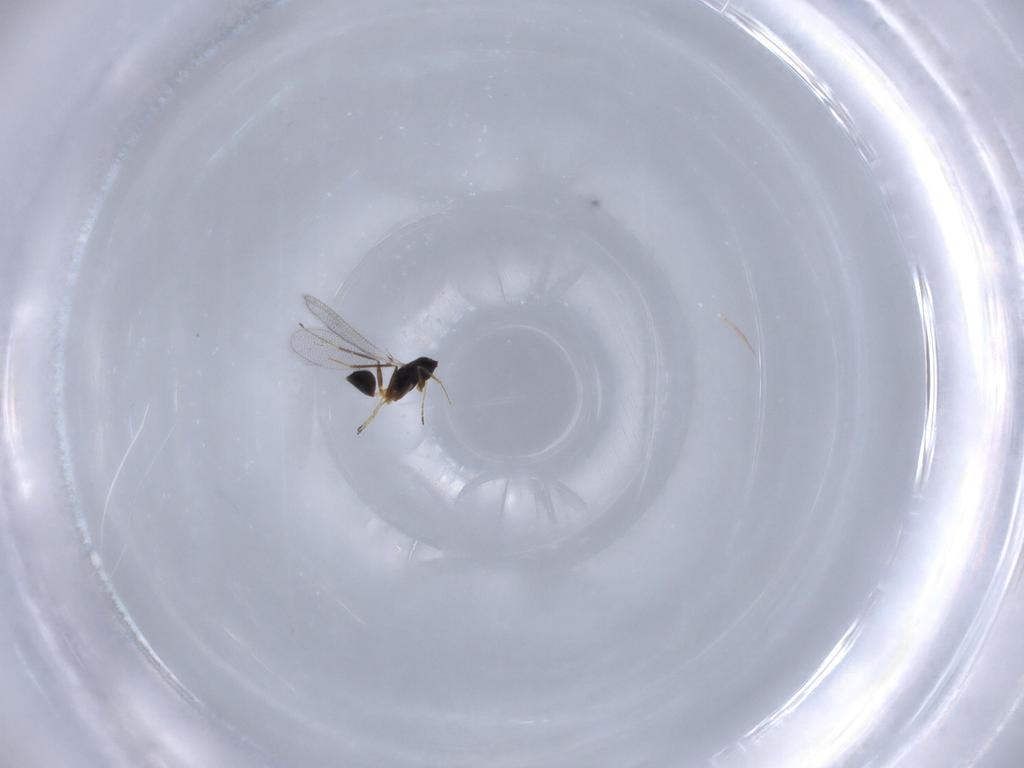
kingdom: Animalia
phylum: Arthropoda
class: Insecta
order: Hymenoptera
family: Mymaridae
